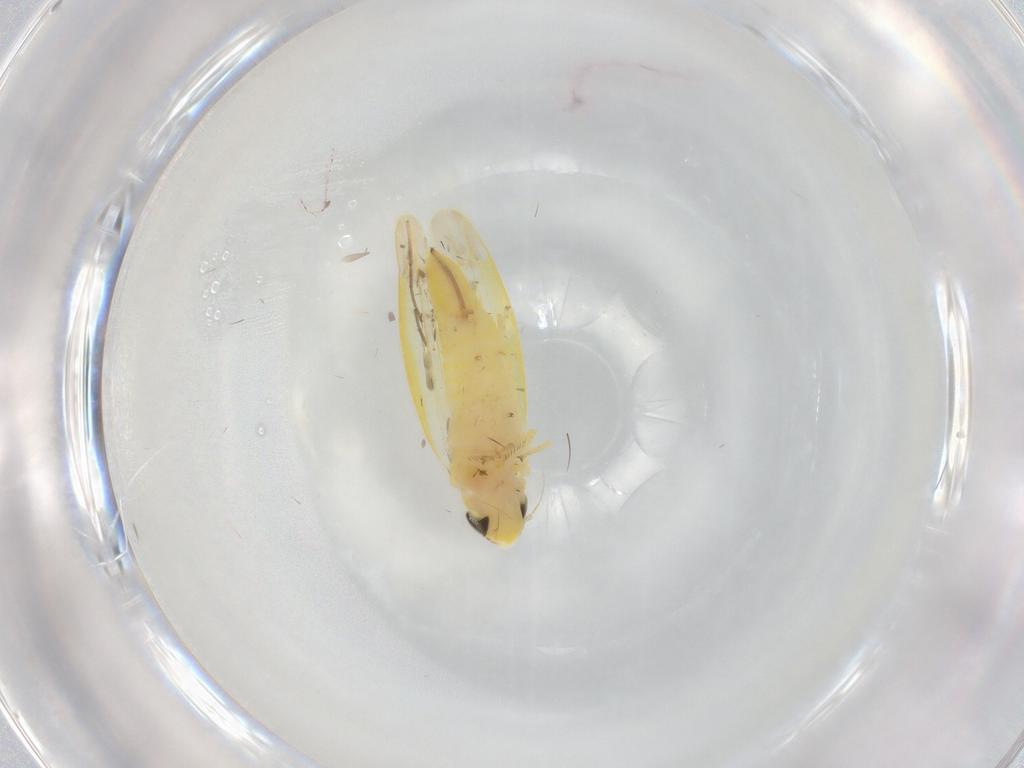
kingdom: Animalia
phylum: Arthropoda
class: Insecta
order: Hemiptera
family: Cicadellidae
